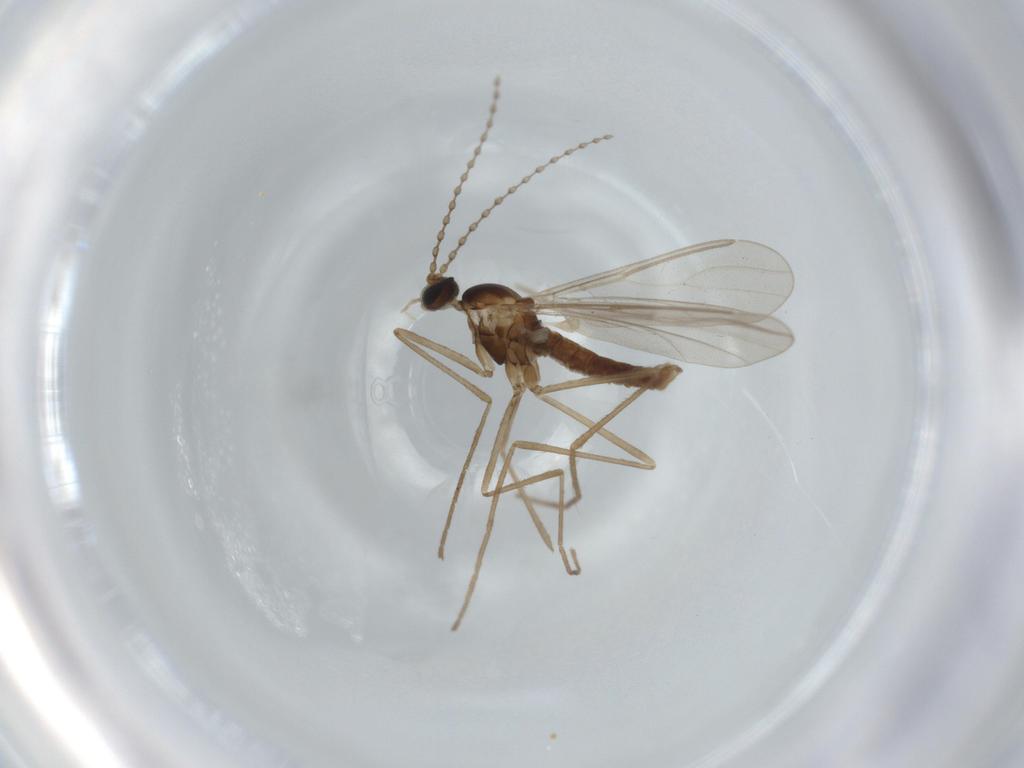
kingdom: Animalia
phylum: Arthropoda
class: Insecta
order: Diptera
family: Cecidomyiidae
